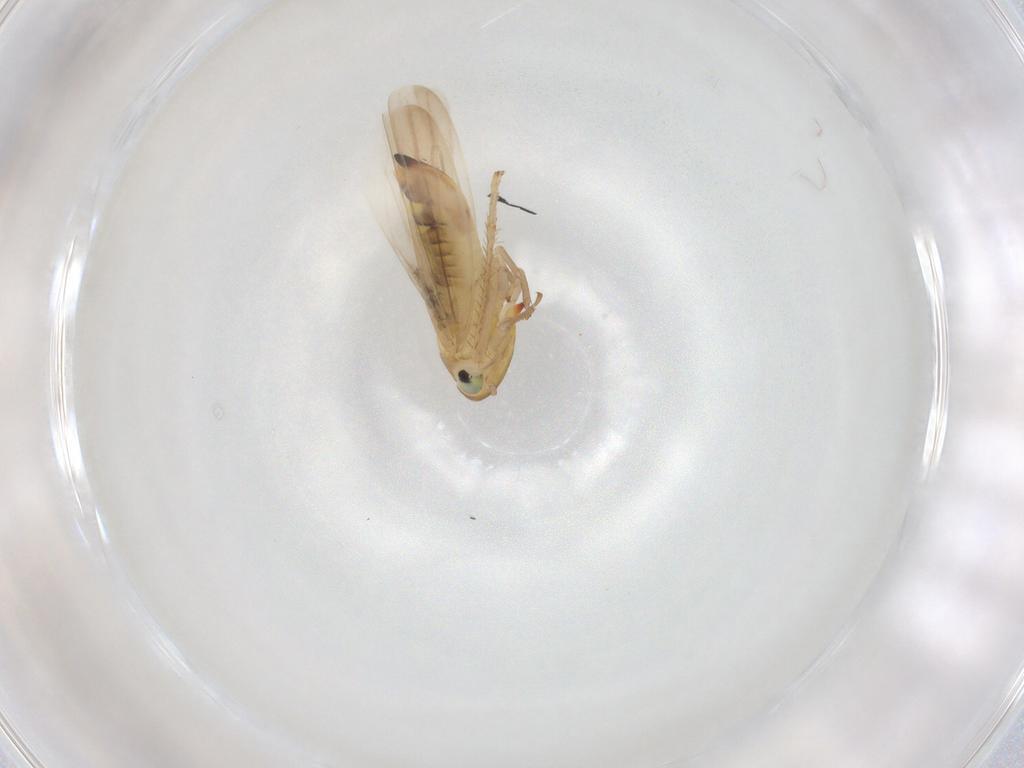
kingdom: Animalia
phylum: Arthropoda
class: Insecta
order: Hemiptera
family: Cicadellidae
